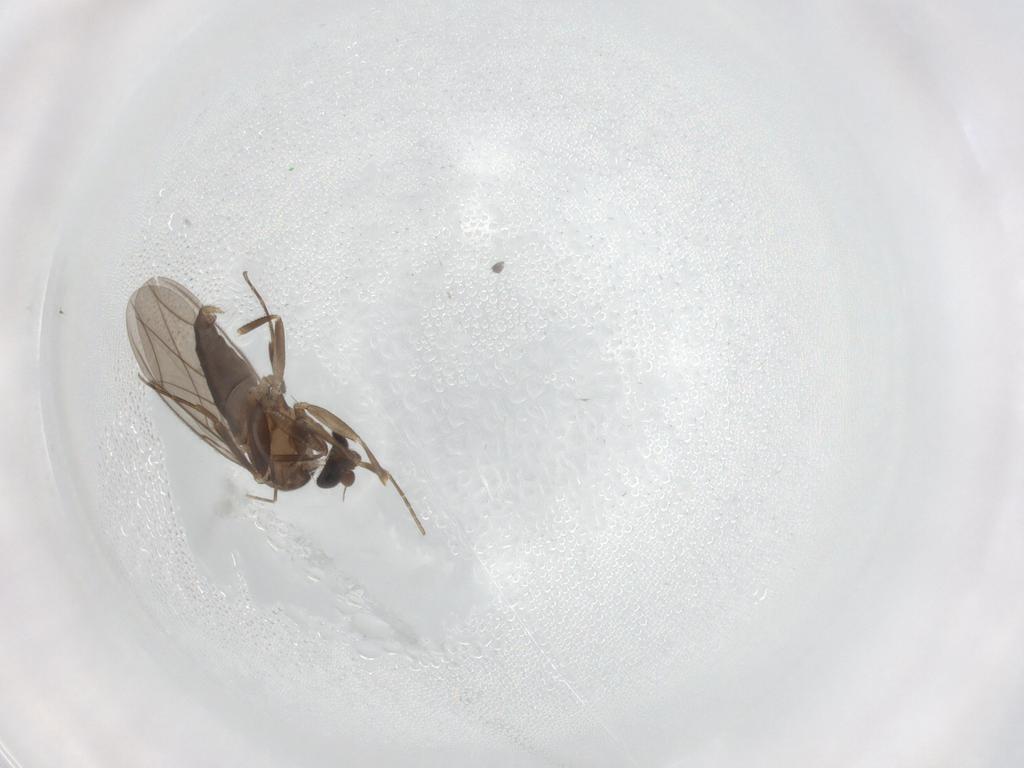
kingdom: Animalia
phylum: Arthropoda
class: Insecta
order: Diptera
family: Phoridae
